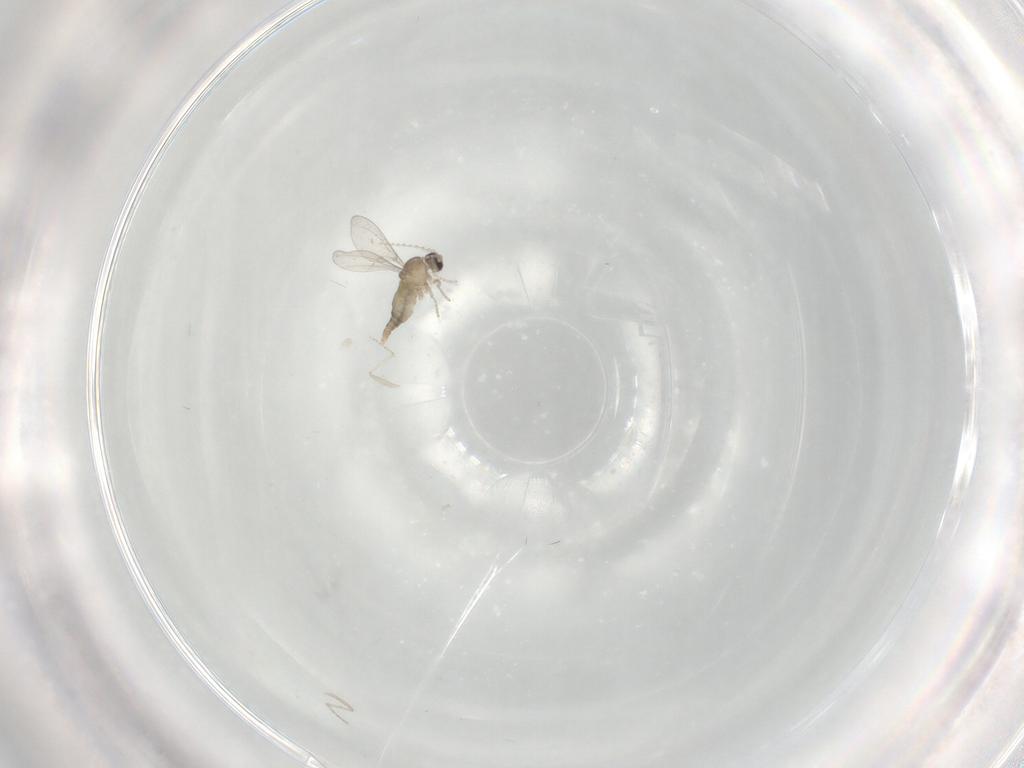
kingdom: Animalia
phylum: Arthropoda
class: Insecta
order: Diptera
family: Cecidomyiidae
